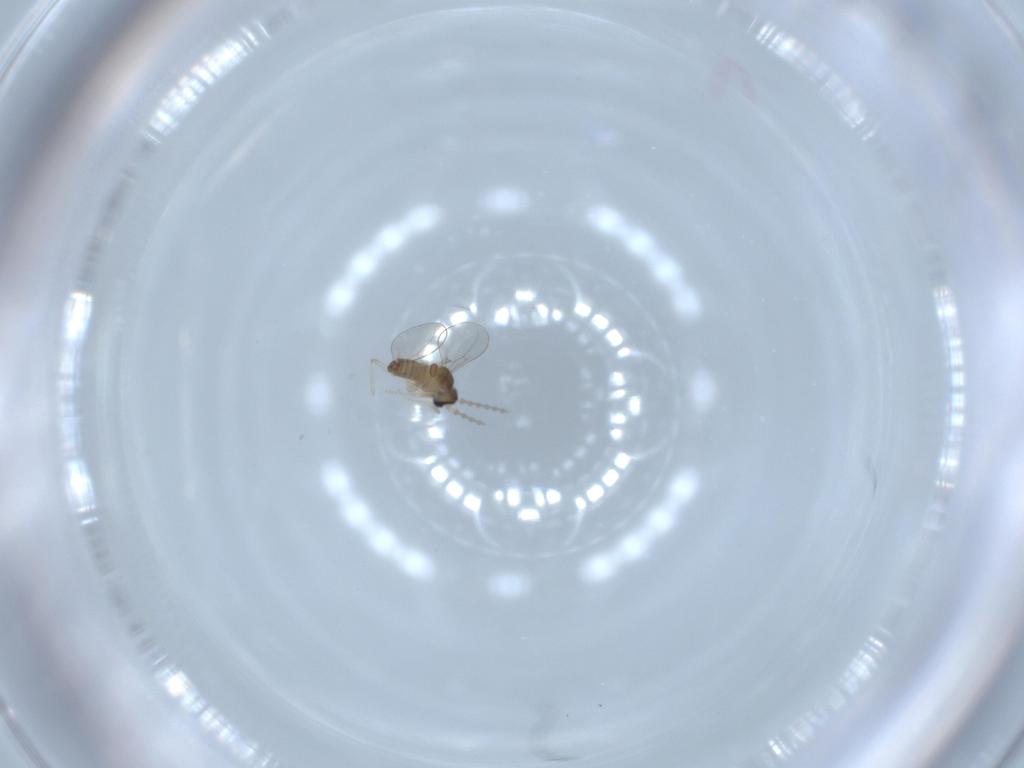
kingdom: Animalia
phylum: Arthropoda
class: Insecta
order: Diptera
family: Cecidomyiidae
